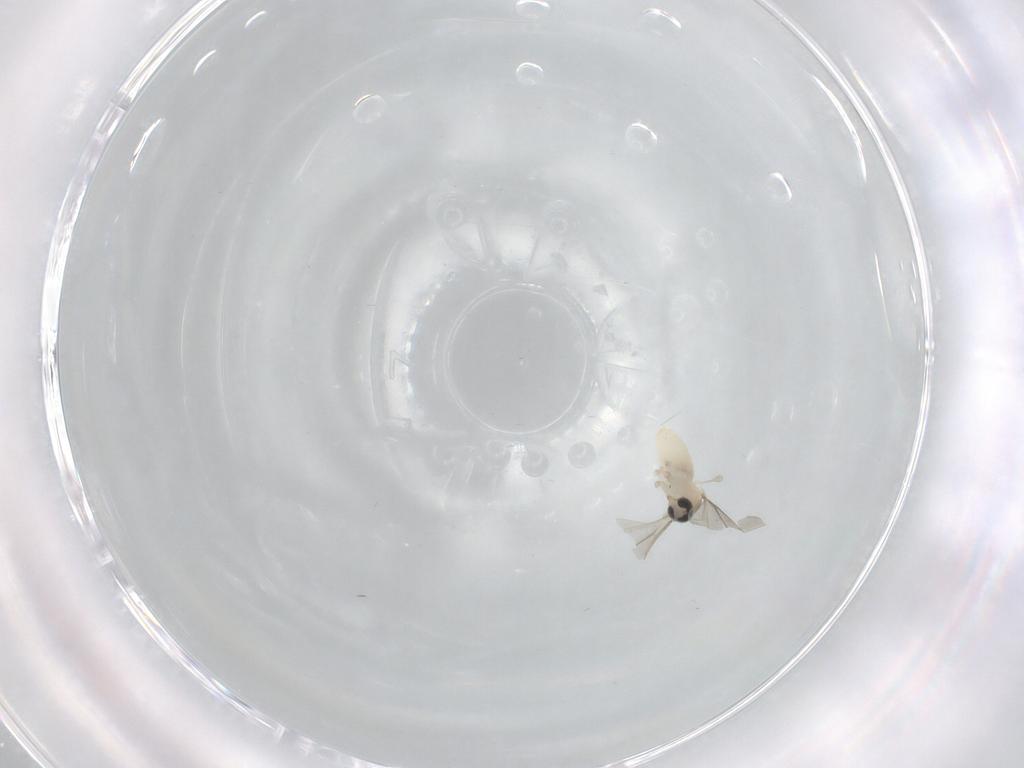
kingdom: Animalia
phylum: Arthropoda
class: Insecta
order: Diptera
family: Cecidomyiidae
